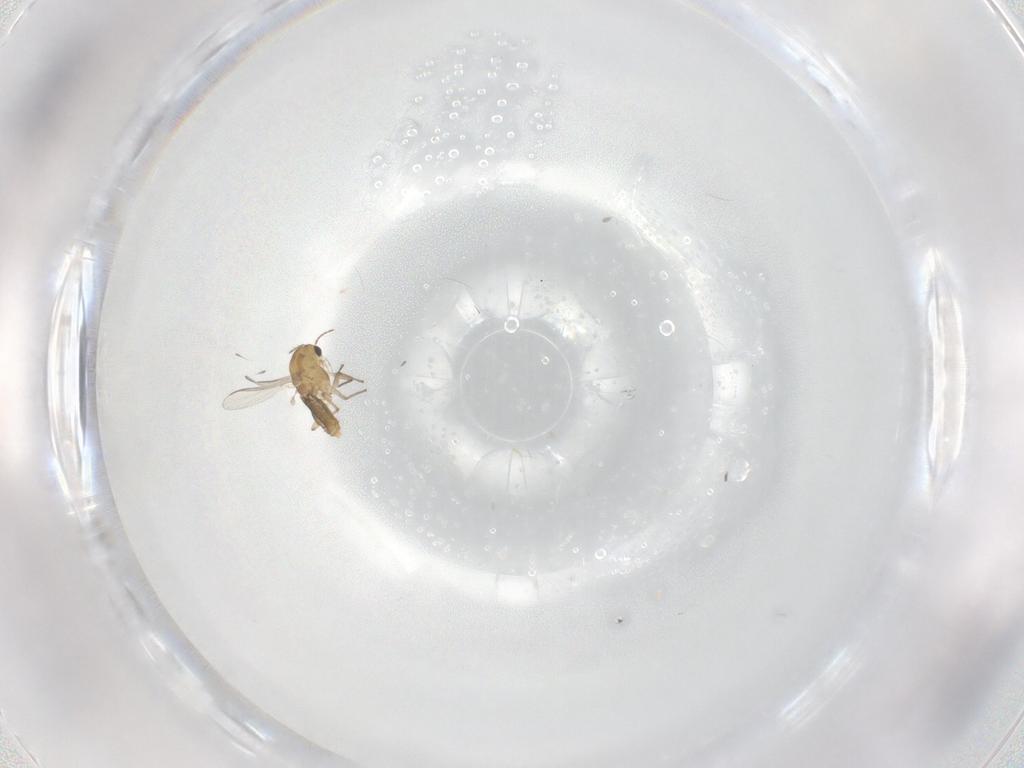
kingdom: Animalia
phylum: Arthropoda
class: Insecta
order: Diptera
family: Chironomidae
